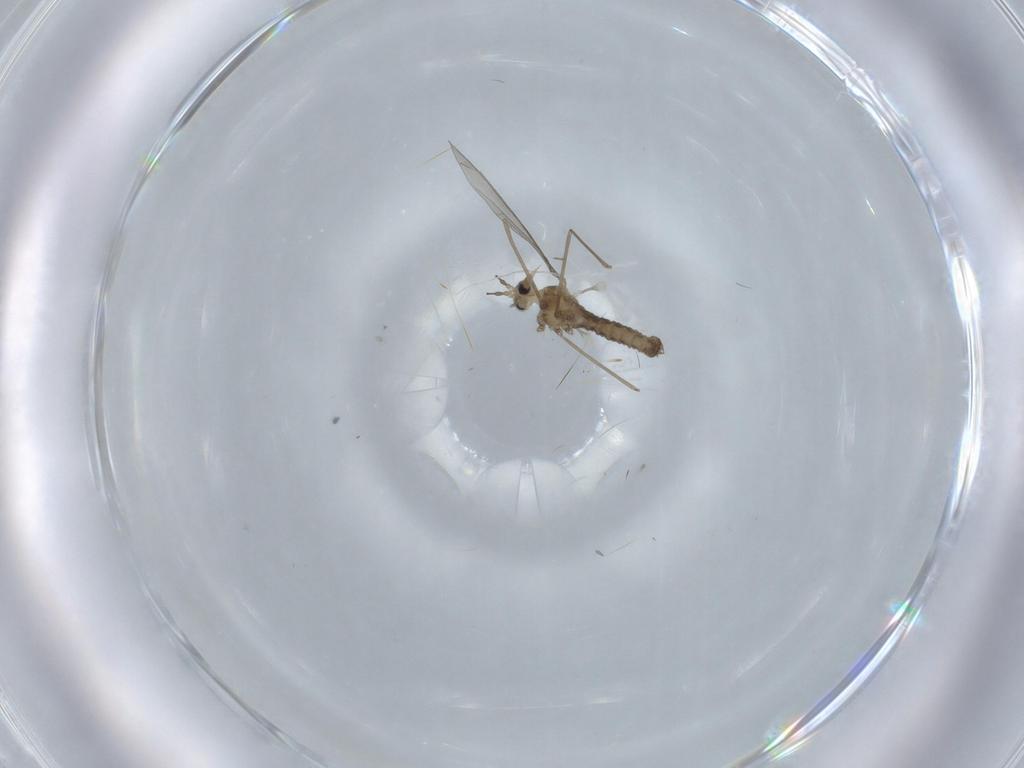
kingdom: Animalia
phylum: Arthropoda
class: Insecta
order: Diptera
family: Cecidomyiidae
